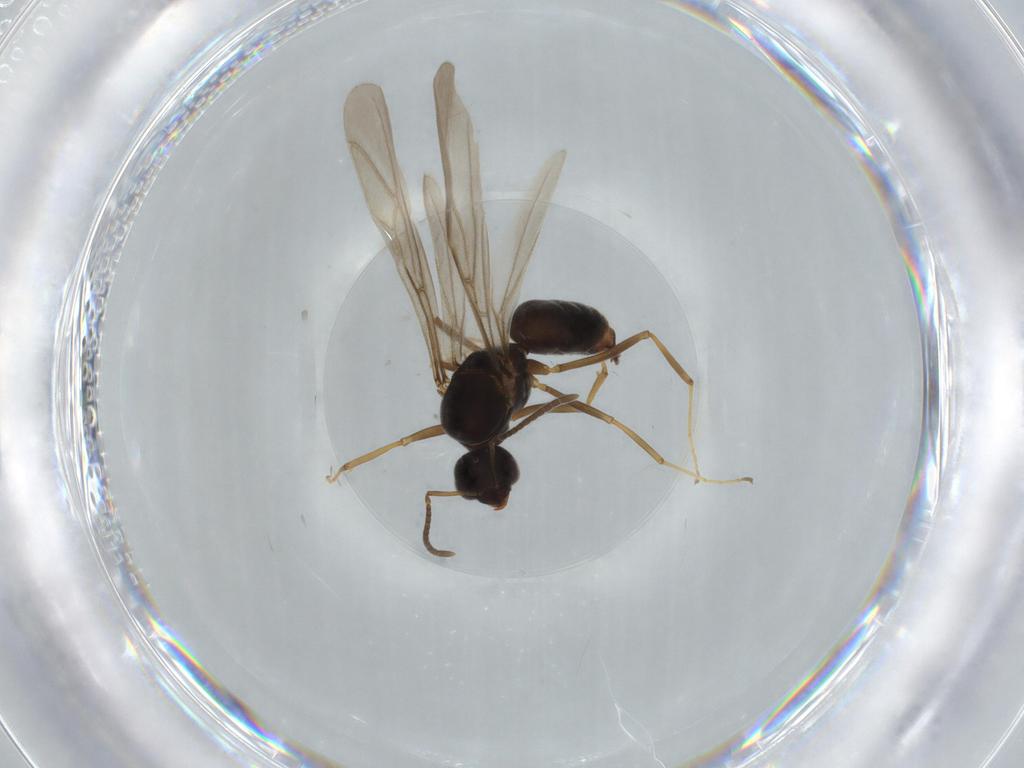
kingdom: Animalia
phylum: Arthropoda
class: Insecta
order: Hymenoptera
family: Formicidae
